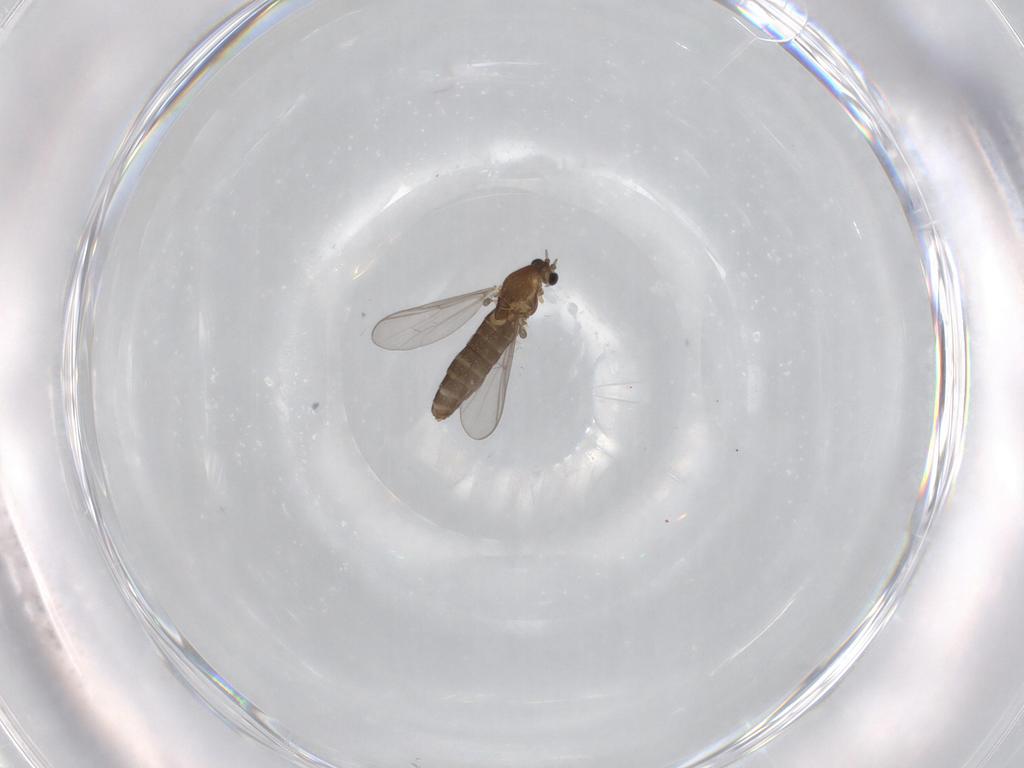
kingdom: Animalia
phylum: Arthropoda
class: Insecta
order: Diptera
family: Chironomidae
